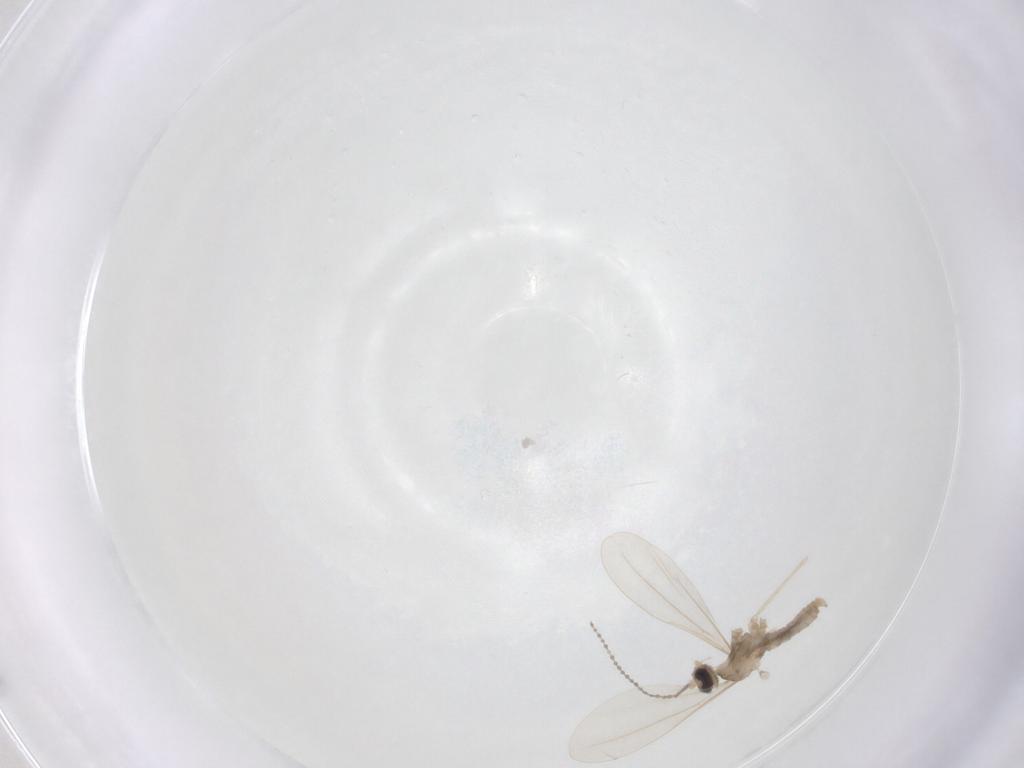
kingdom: Animalia
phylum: Arthropoda
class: Insecta
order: Diptera
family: Cecidomyiidae
